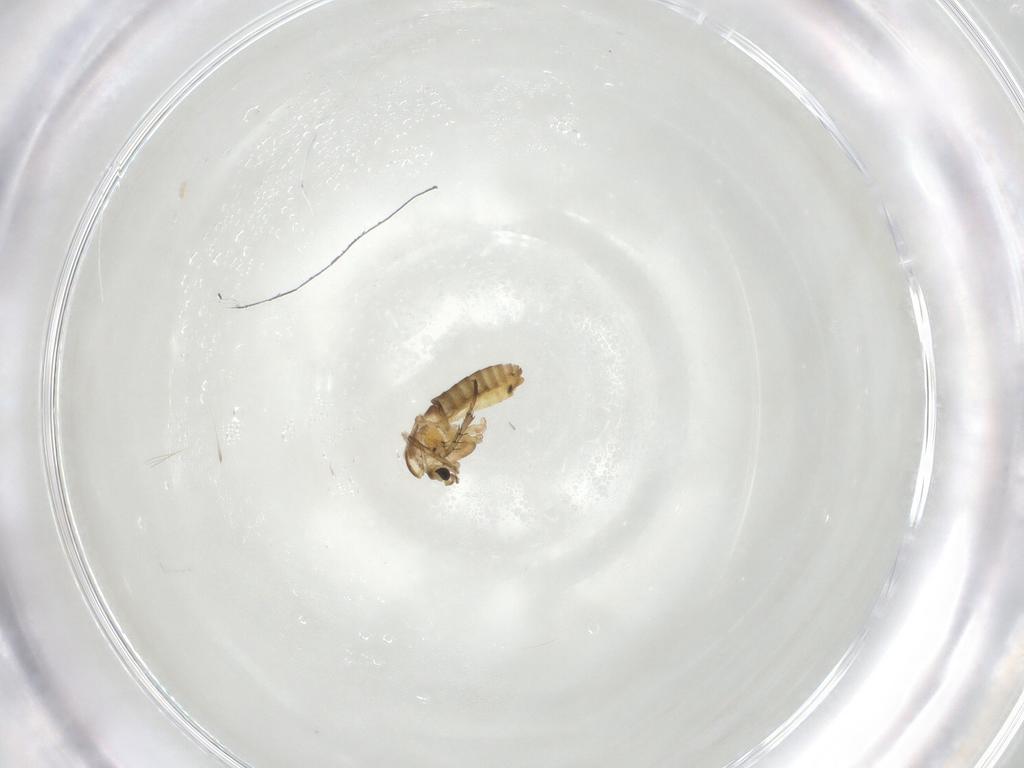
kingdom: Animalia
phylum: Arthropoda
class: Insecta
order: Diptera
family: Chironomidae
